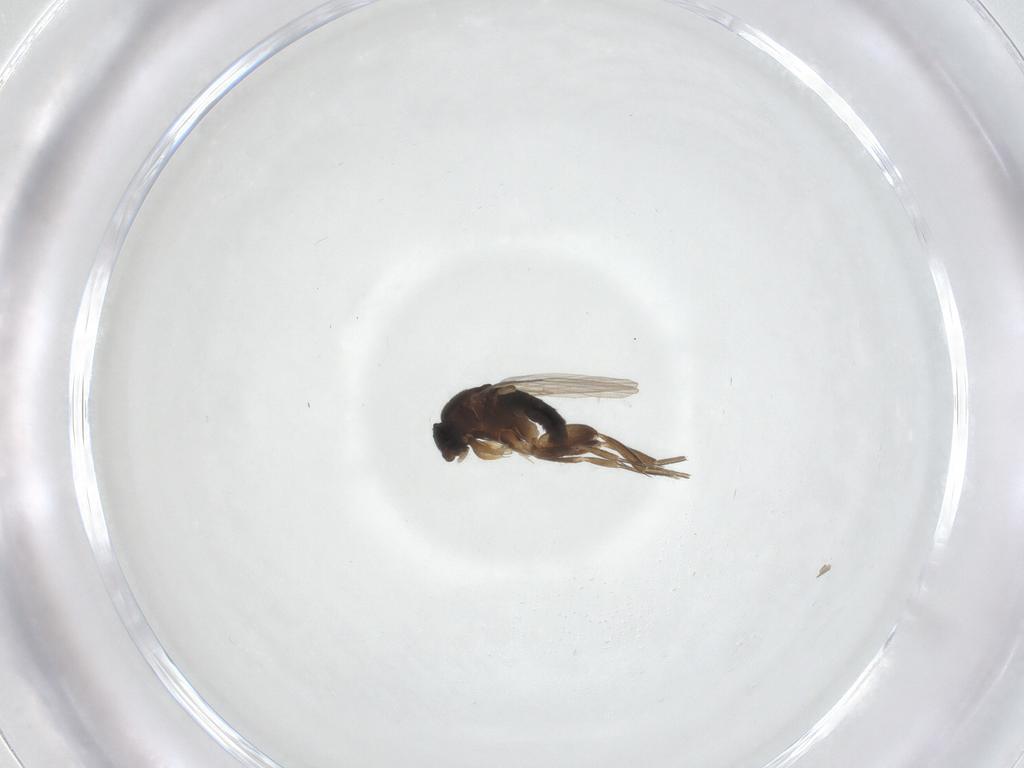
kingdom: Animalia
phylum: Arthropoda
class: Insecta
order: Diptera
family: Phoridae
